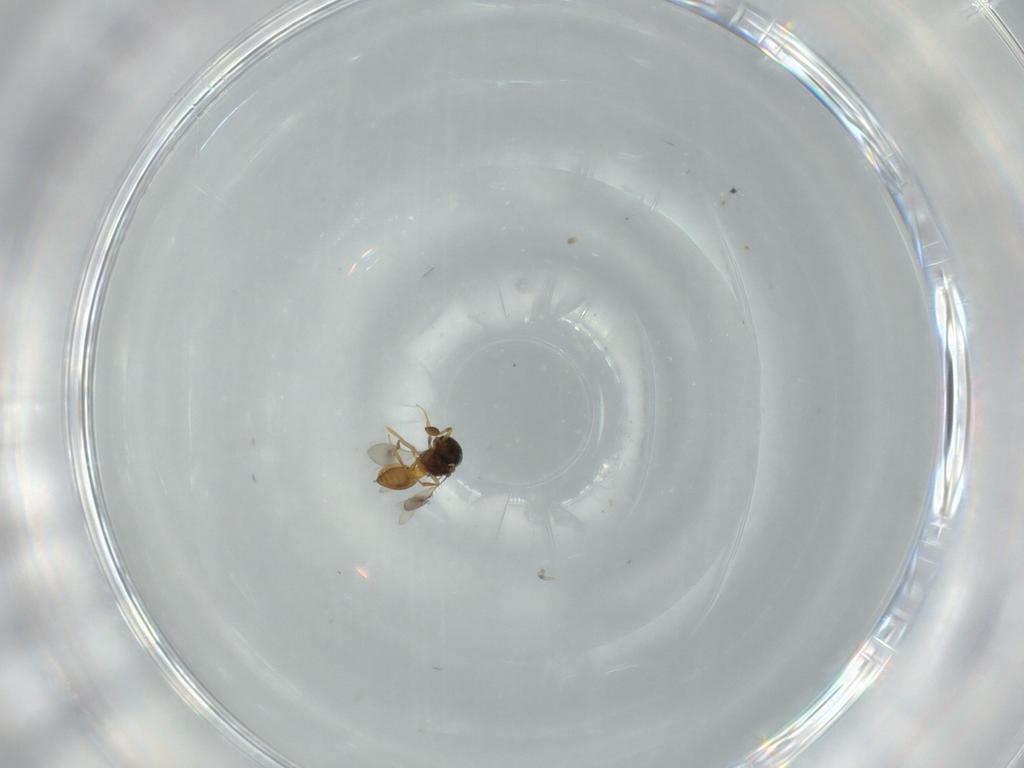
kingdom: Animalia
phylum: Arthropoda
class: Insecta
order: Hymenoptera
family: Scelionidae
